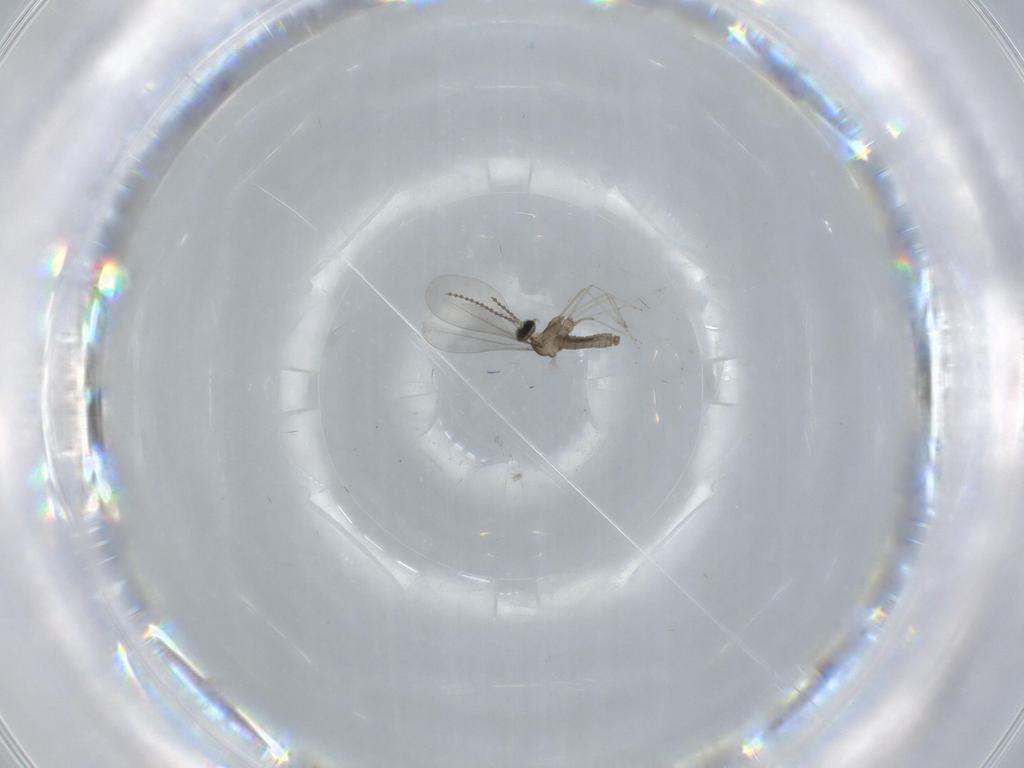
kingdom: Animalia
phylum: Arthropoda
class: Insecta
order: Diptera
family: Cecidomyiidae
